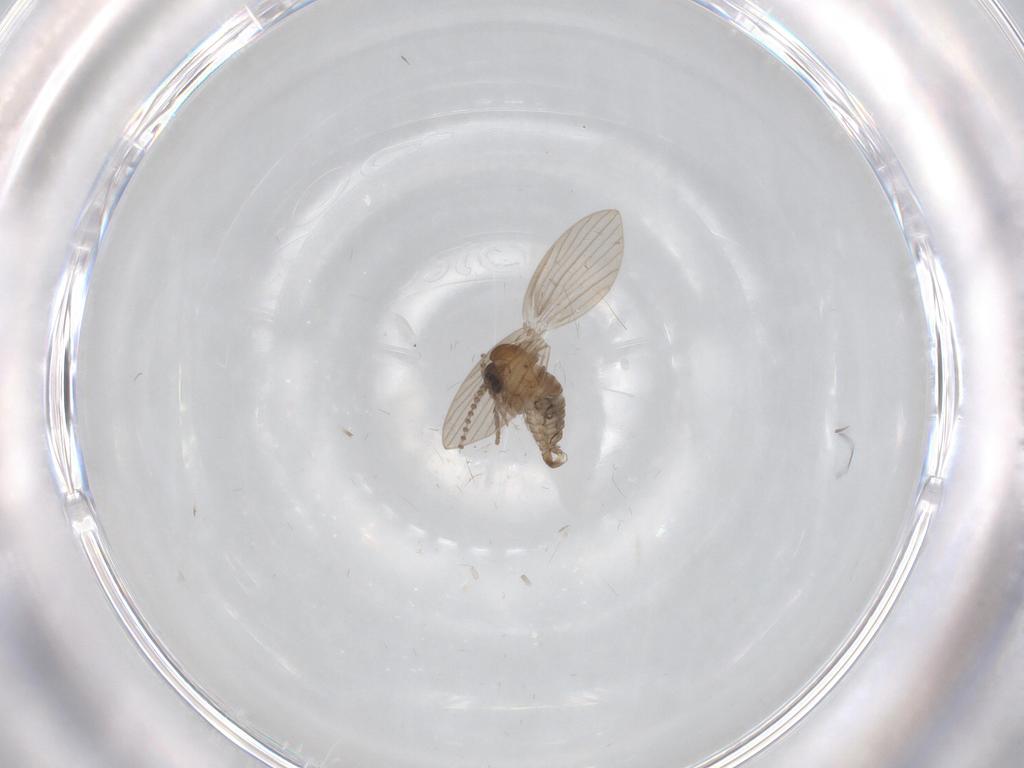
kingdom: Animalia
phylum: Arthropoda
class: Insecta
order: Diptera
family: Psychodidae
